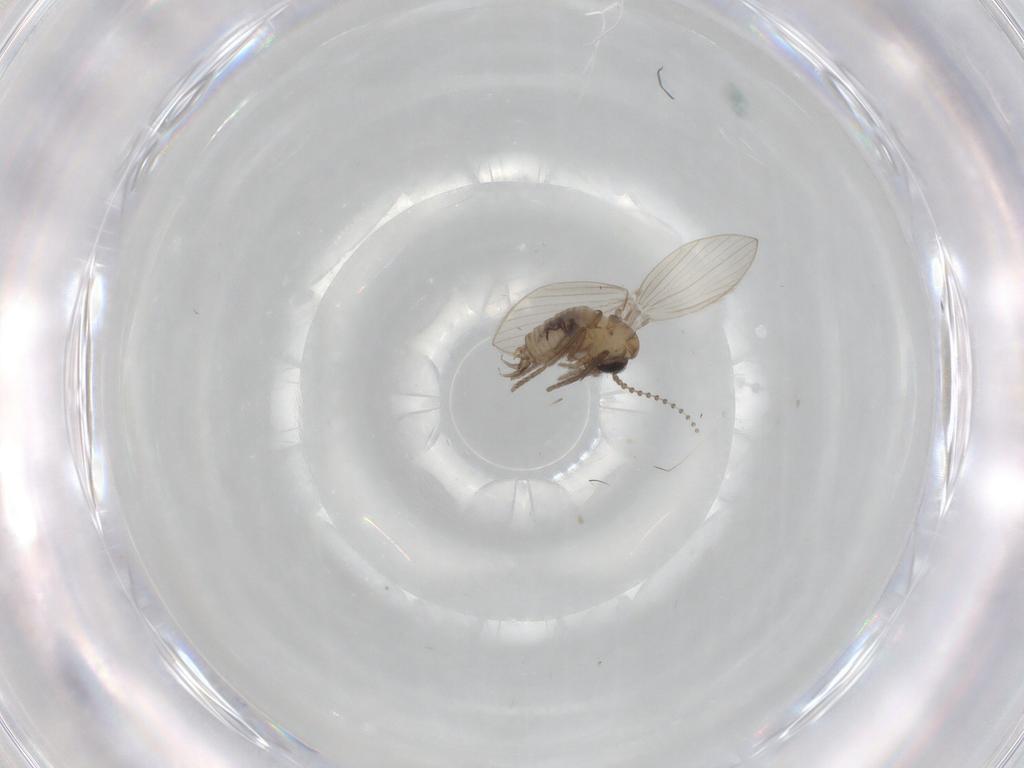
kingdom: Animalia
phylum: Arthropoda
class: Insecta
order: Diptera
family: Psychodidae
